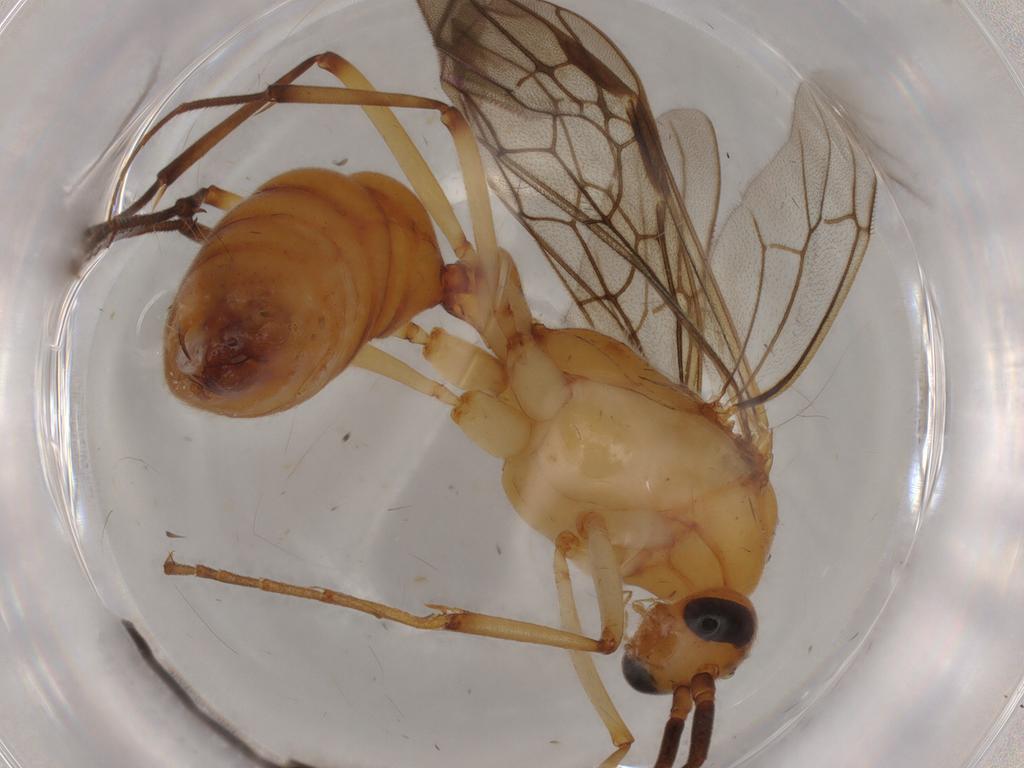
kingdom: Animalia
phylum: Arthropoda
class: Insecta
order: Hymenoptera
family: Formicidae
